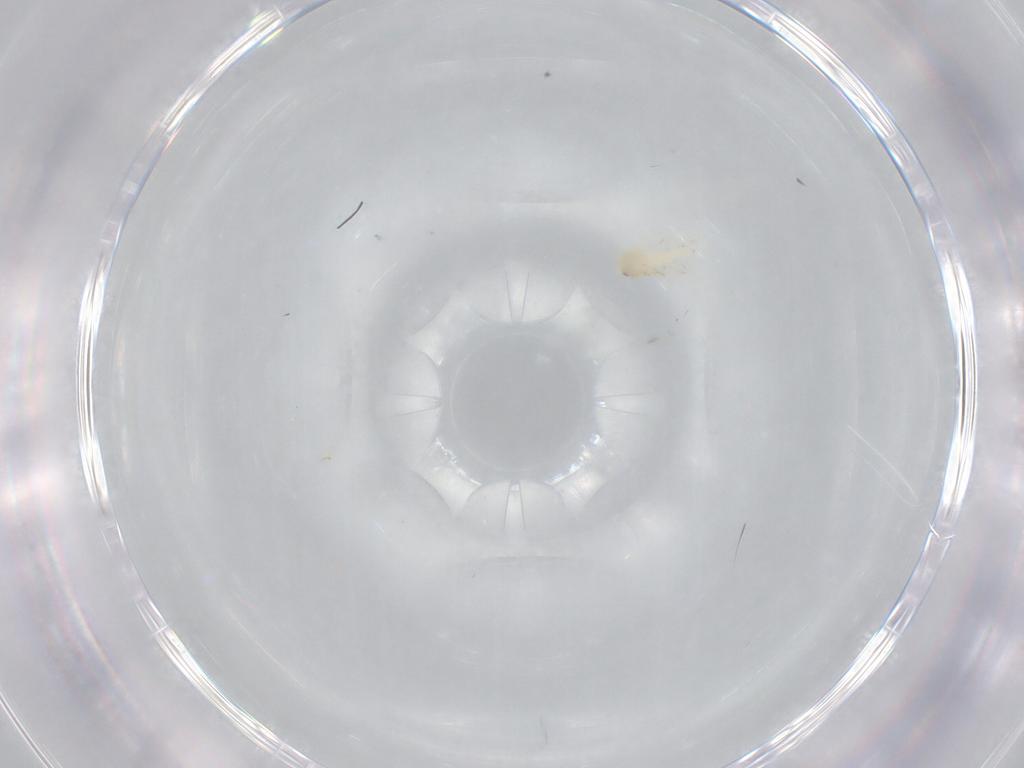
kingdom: Animalia
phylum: Arthropoda
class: Insecta
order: Hemiptera
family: Aleyrodidae
